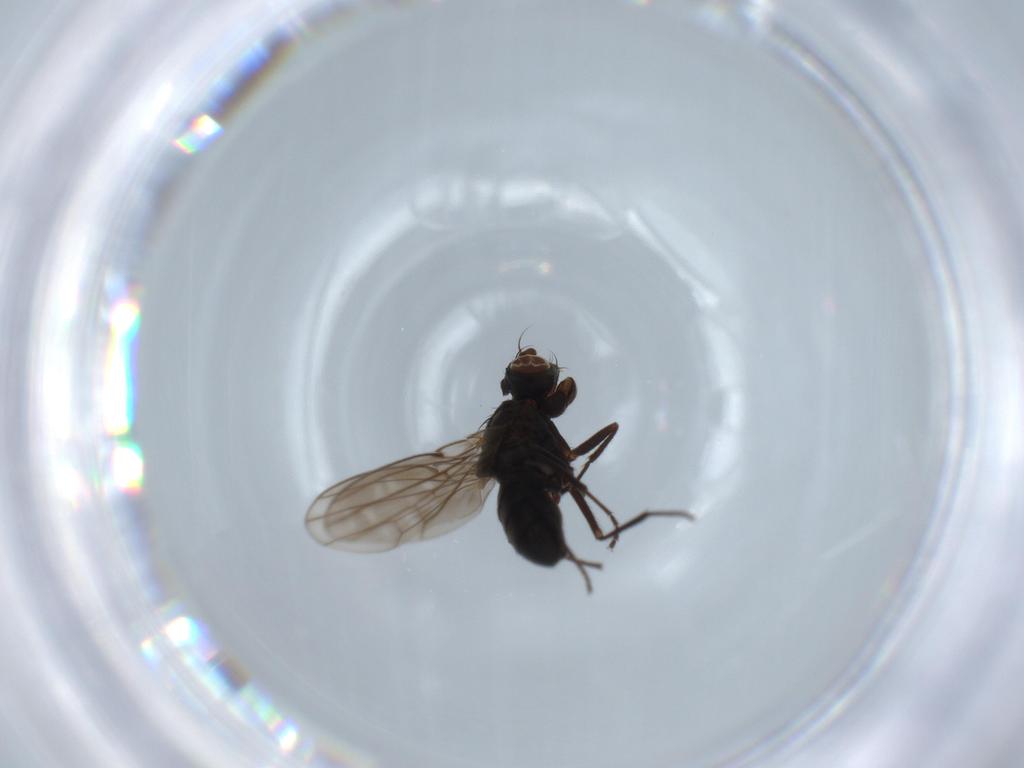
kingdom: Animalia
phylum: Arthropoda
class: Insecta
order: Diptera
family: Ephydridae
